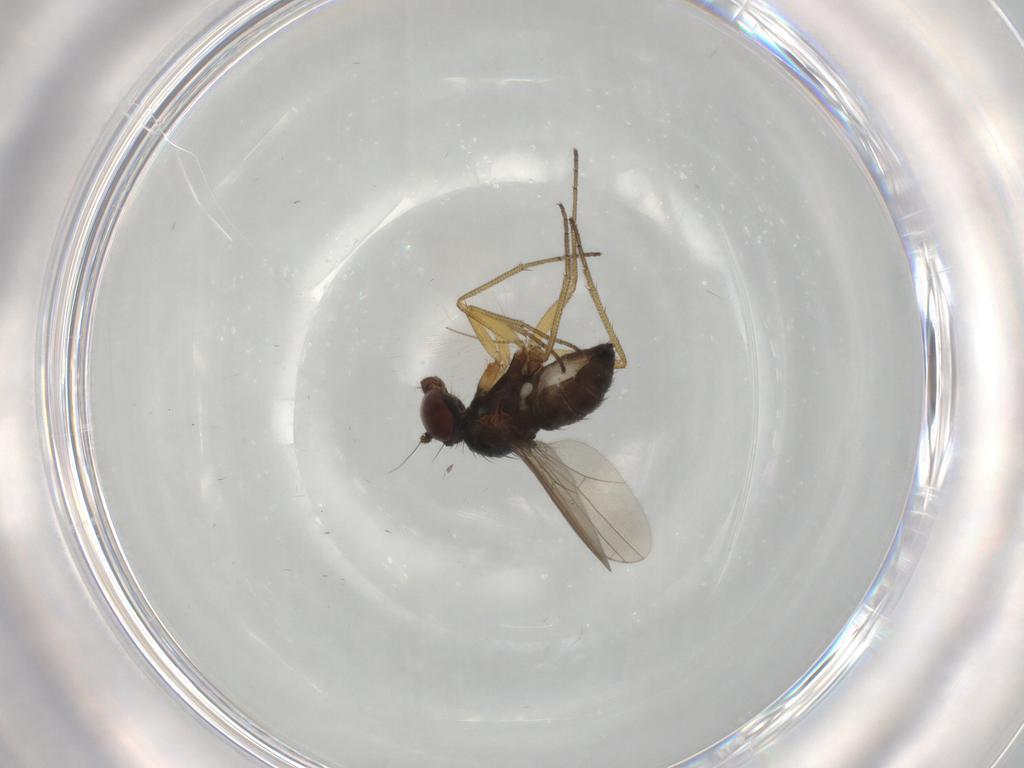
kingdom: Animalia
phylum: Arthropoda
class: Insecta
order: Diptera
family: Dolichopodidae
